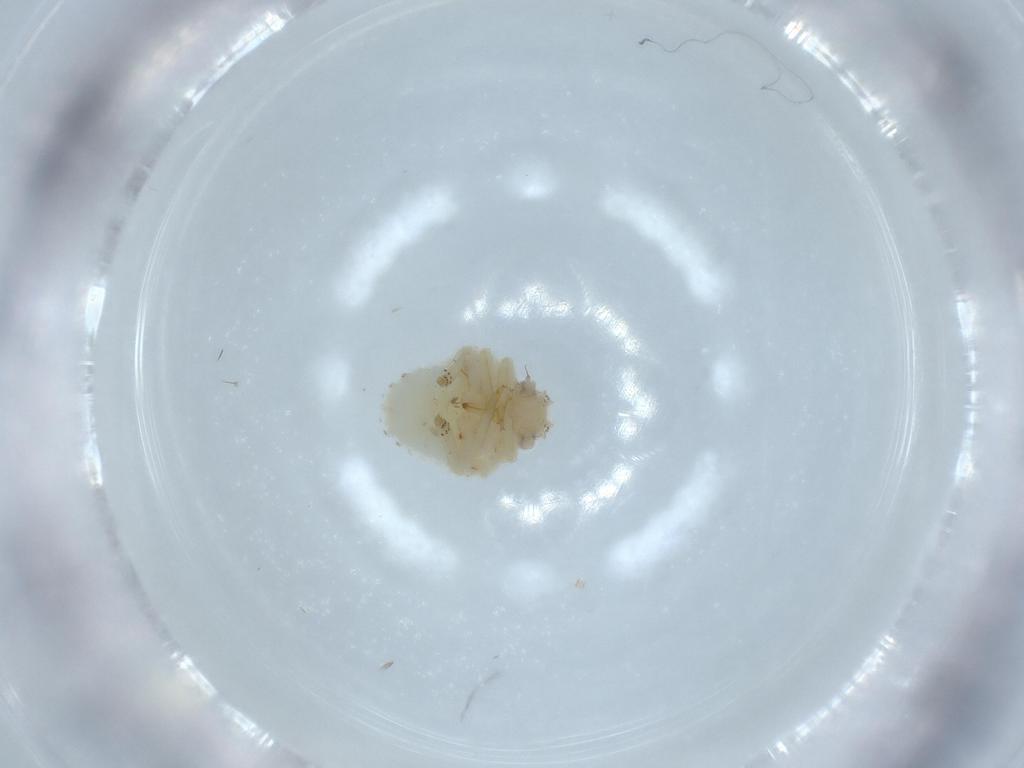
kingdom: Animalia
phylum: Arthropoda
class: Insecta
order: Hemiptera
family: Acanaloniidae
